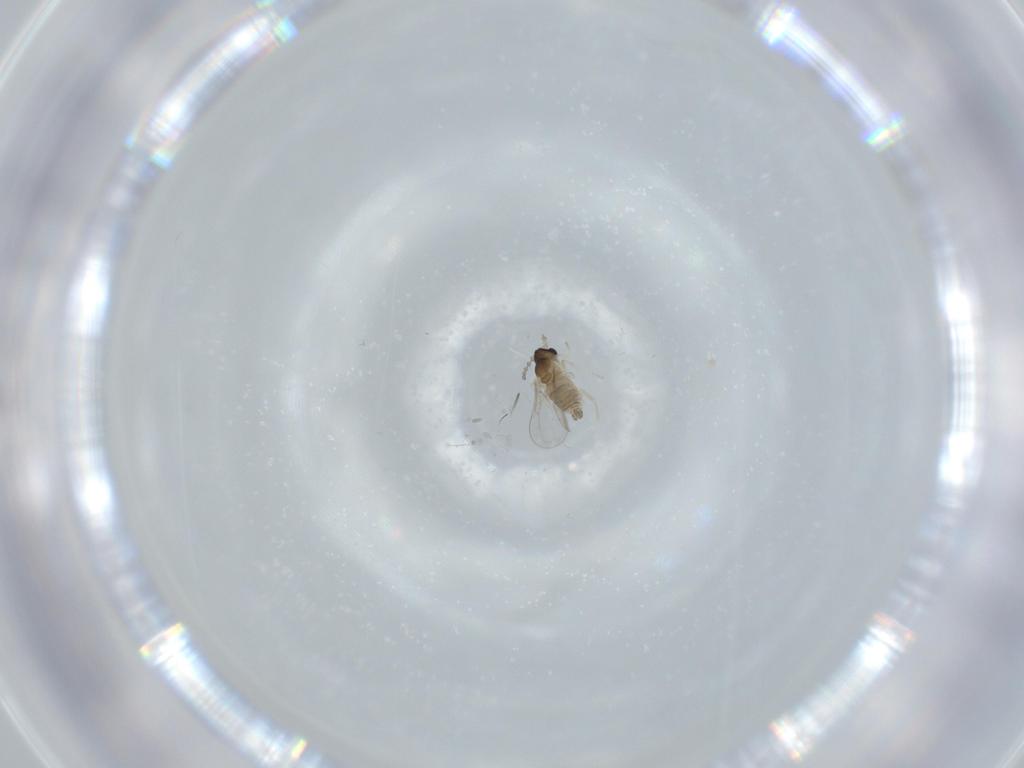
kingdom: Animalia
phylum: Arthropoda
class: Insecta
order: Diptera
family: Cecidomyiidae
